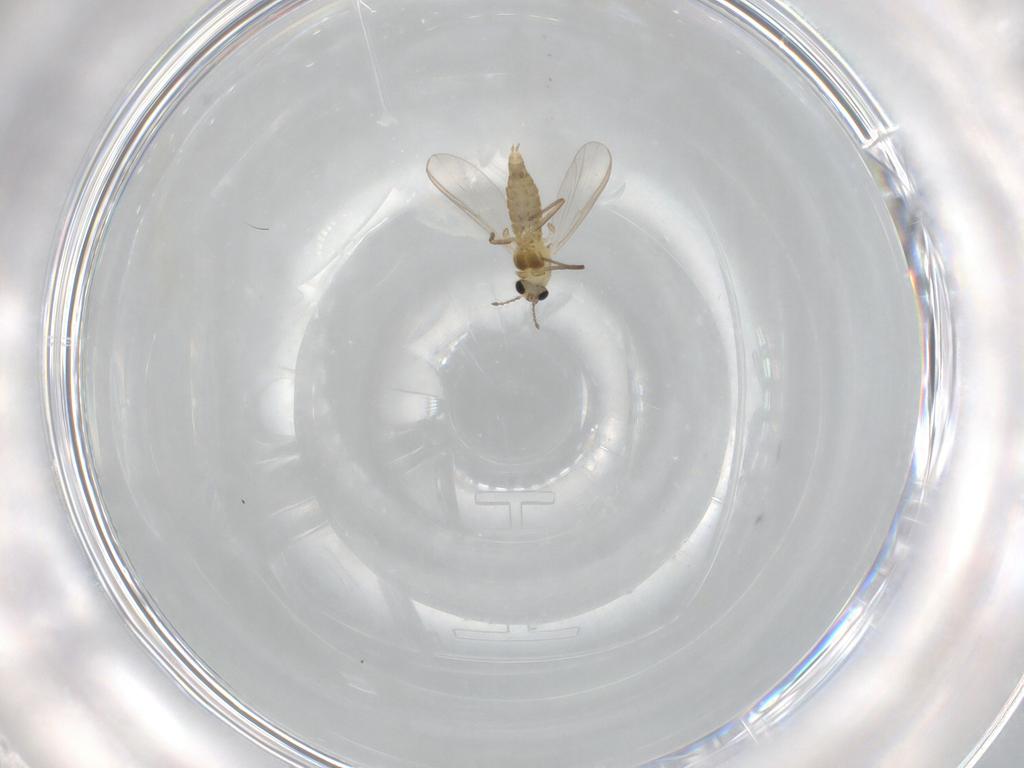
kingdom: Animalia
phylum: Arthropoda
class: Insecta
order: Diptera
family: Chironomidae
